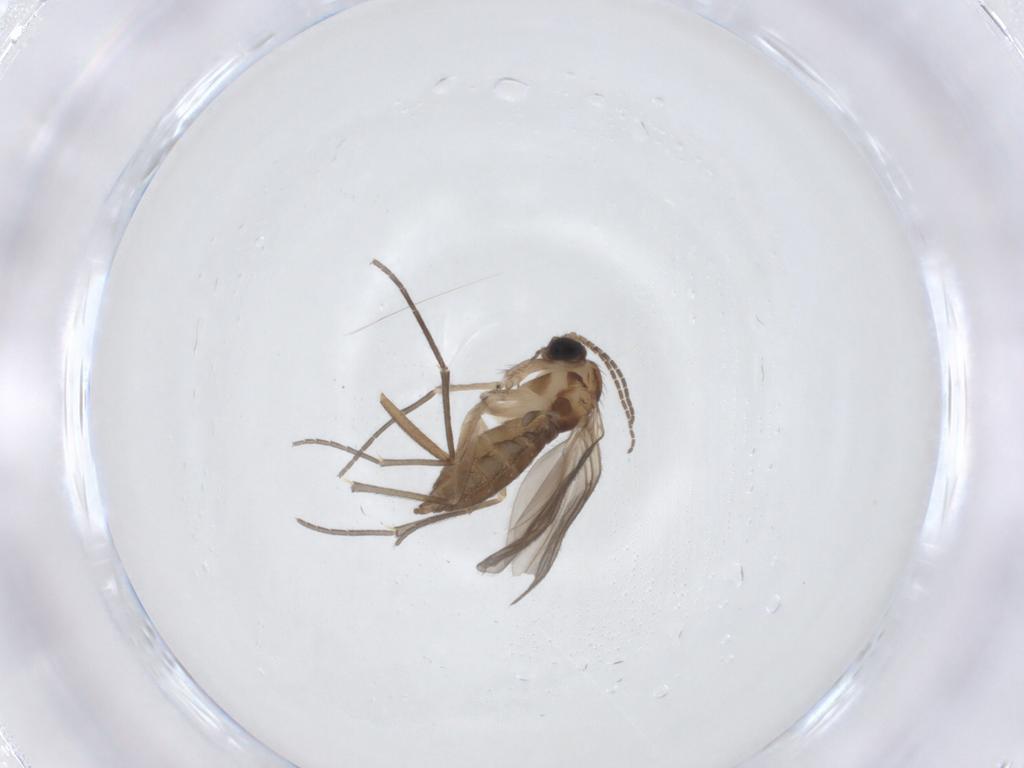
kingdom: Animalia
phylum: Arthropoda
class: Insecta
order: Diptera
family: Sciaridae
